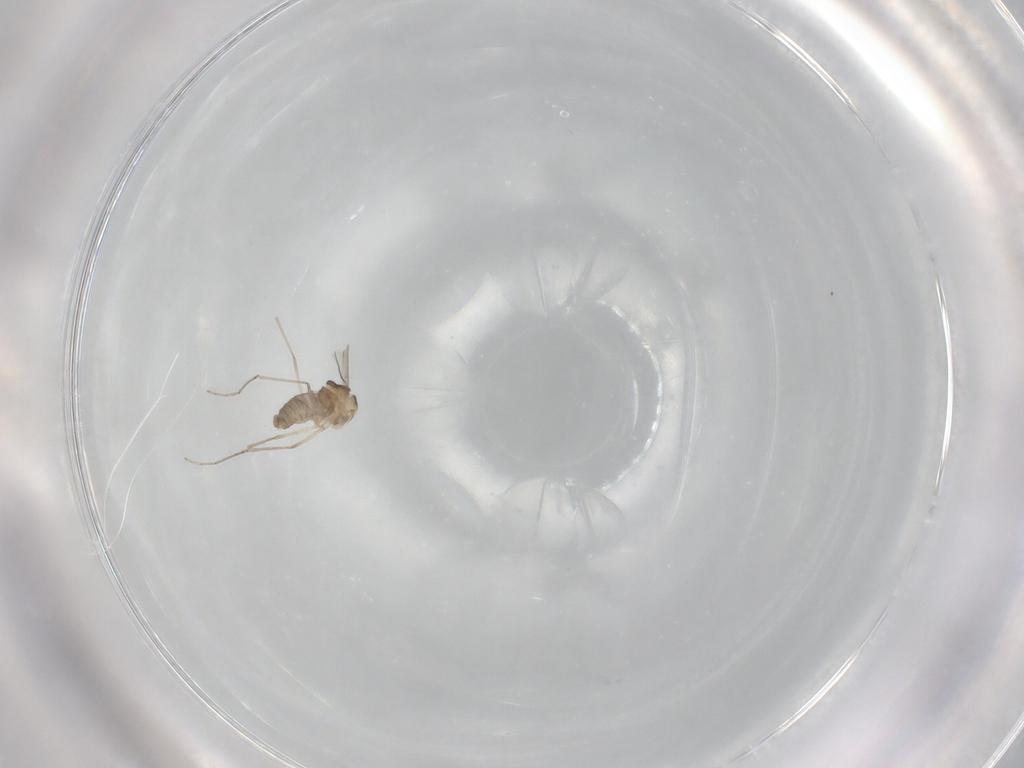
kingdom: Animalia
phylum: Arthropoda
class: Insecta
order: Diptera
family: Cecidomyiidae
